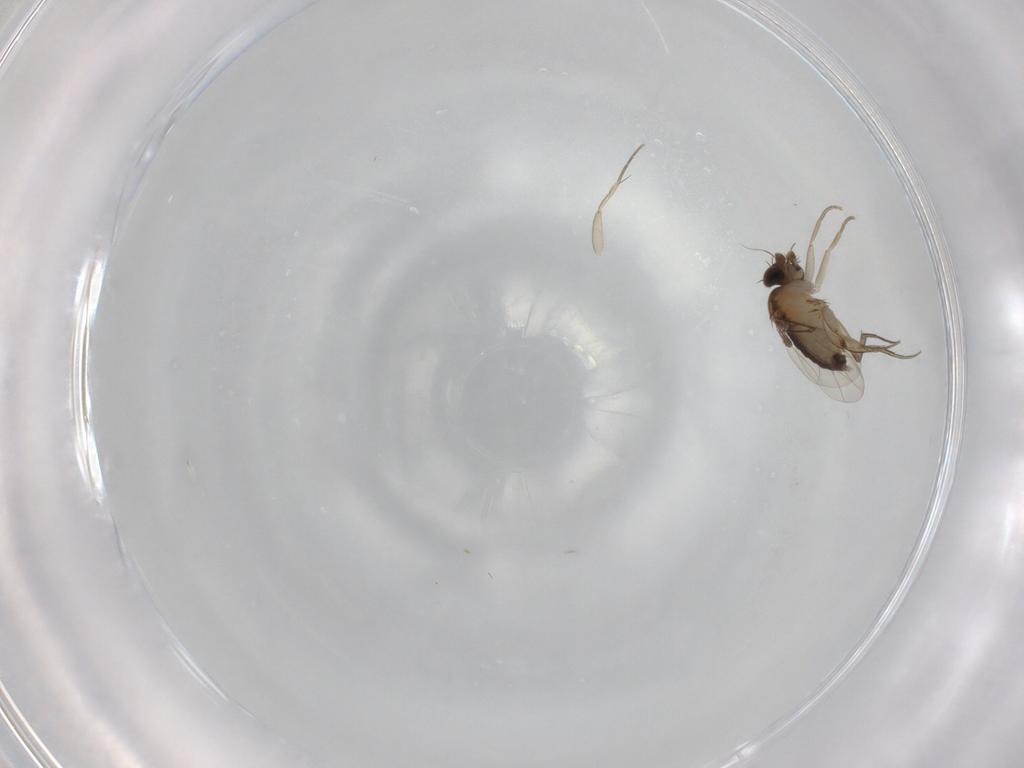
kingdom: Animalia
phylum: Arthropoda
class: Insecta
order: Diptera
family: Phoridae
